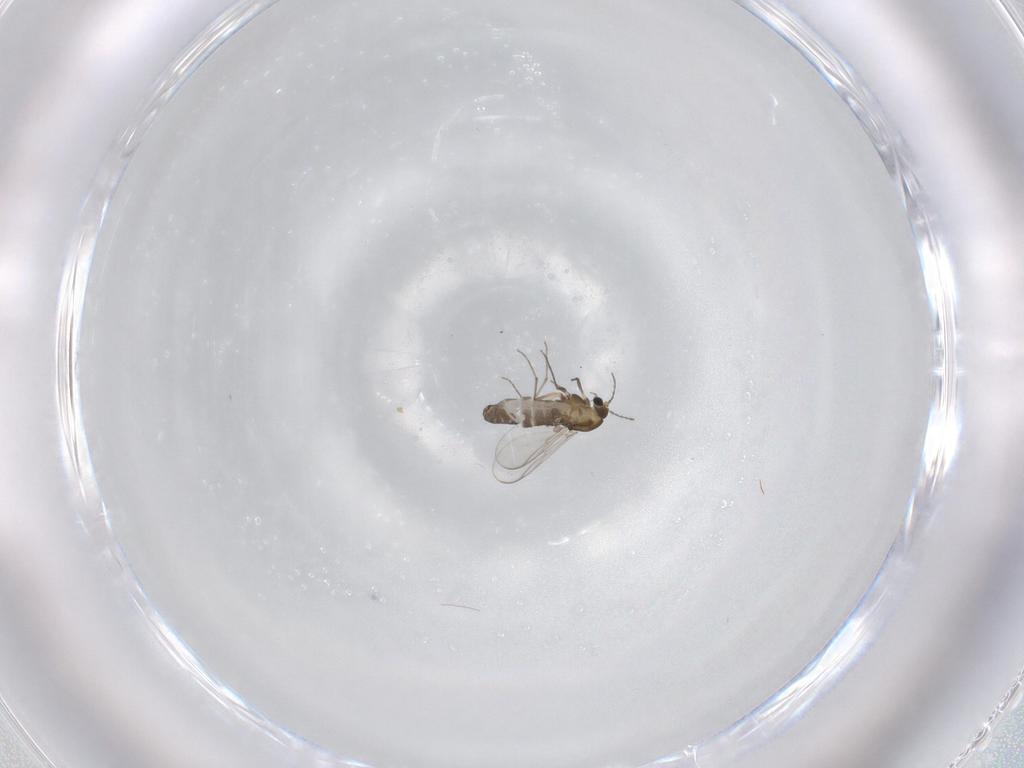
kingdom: Animalia
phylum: Arthropoda
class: Insecta
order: Diptera
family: Chironomidae
